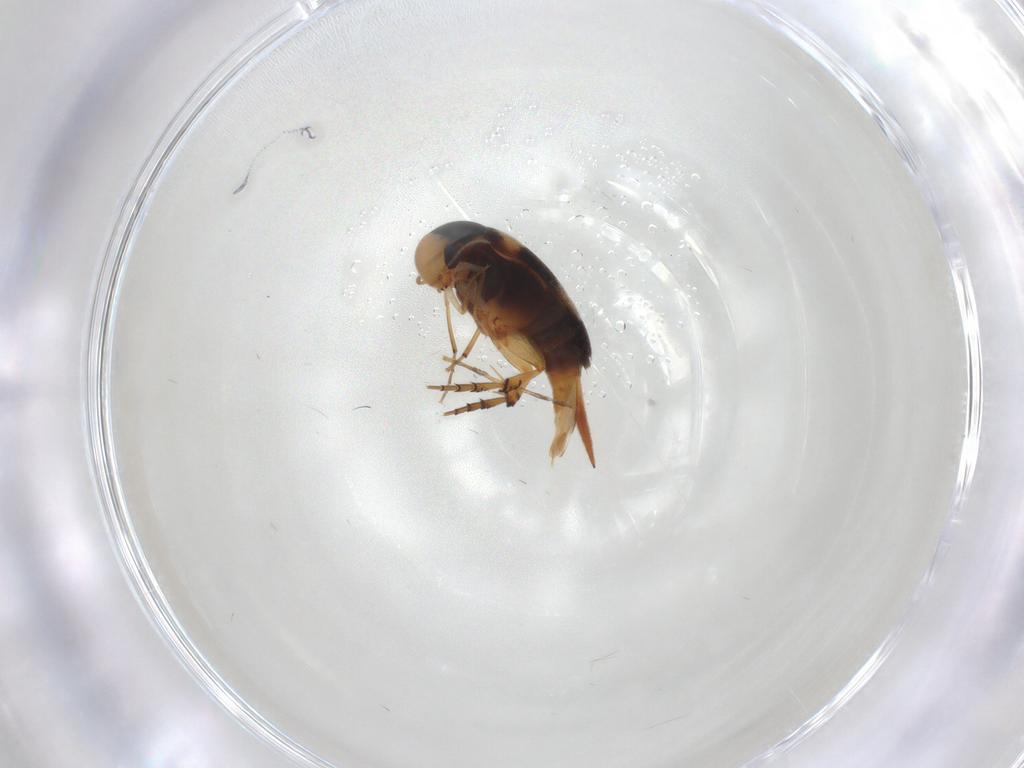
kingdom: Animalia
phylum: Arthropoda
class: Insecta
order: Coleoptera
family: Mordellidae
